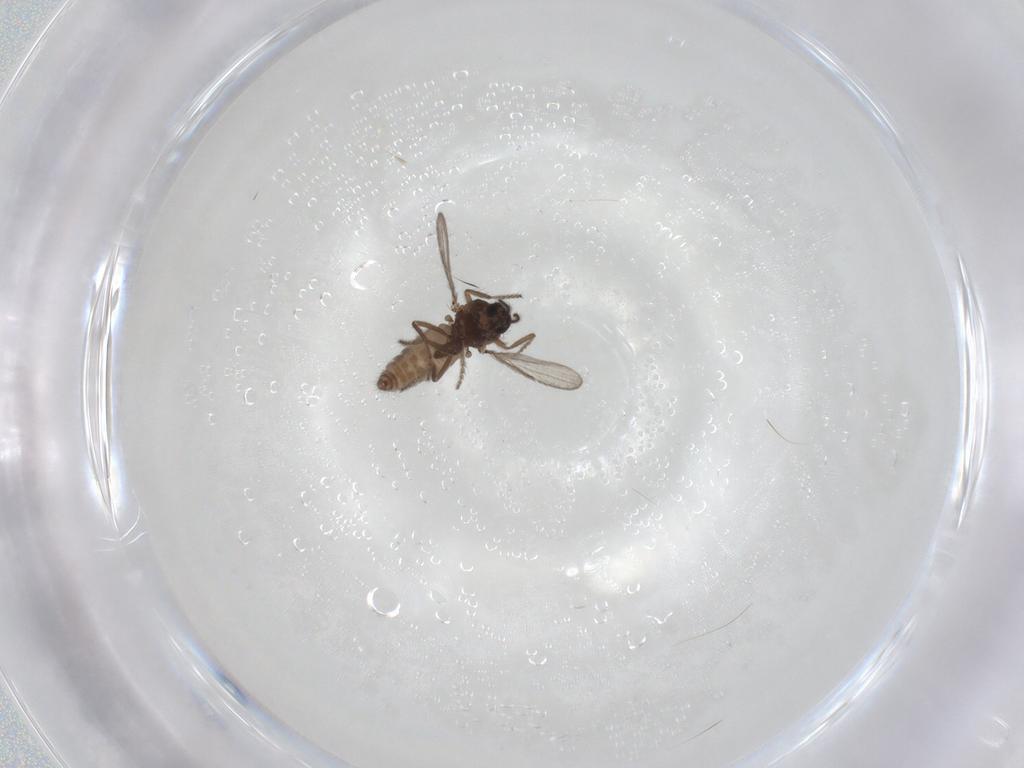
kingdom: Animalia
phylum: Arthropoda
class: Insecta
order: Diptera
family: Ceratopogonidae
